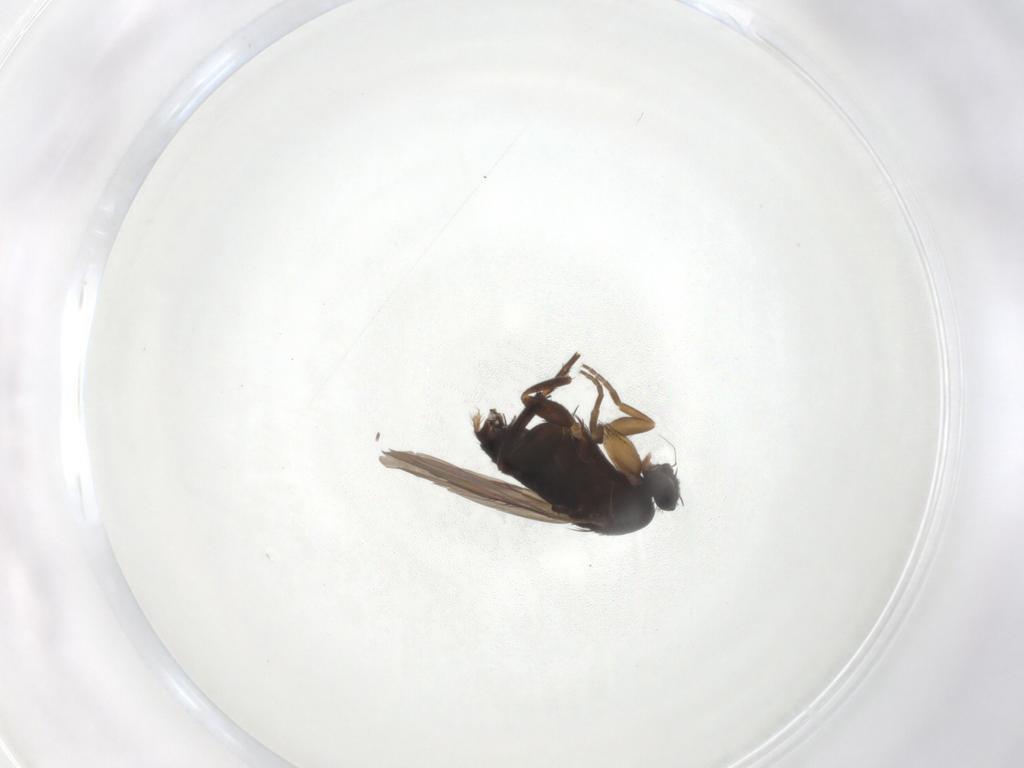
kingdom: Animalia
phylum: Arthropoda
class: Insecta
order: Diptera
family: Phoridae
